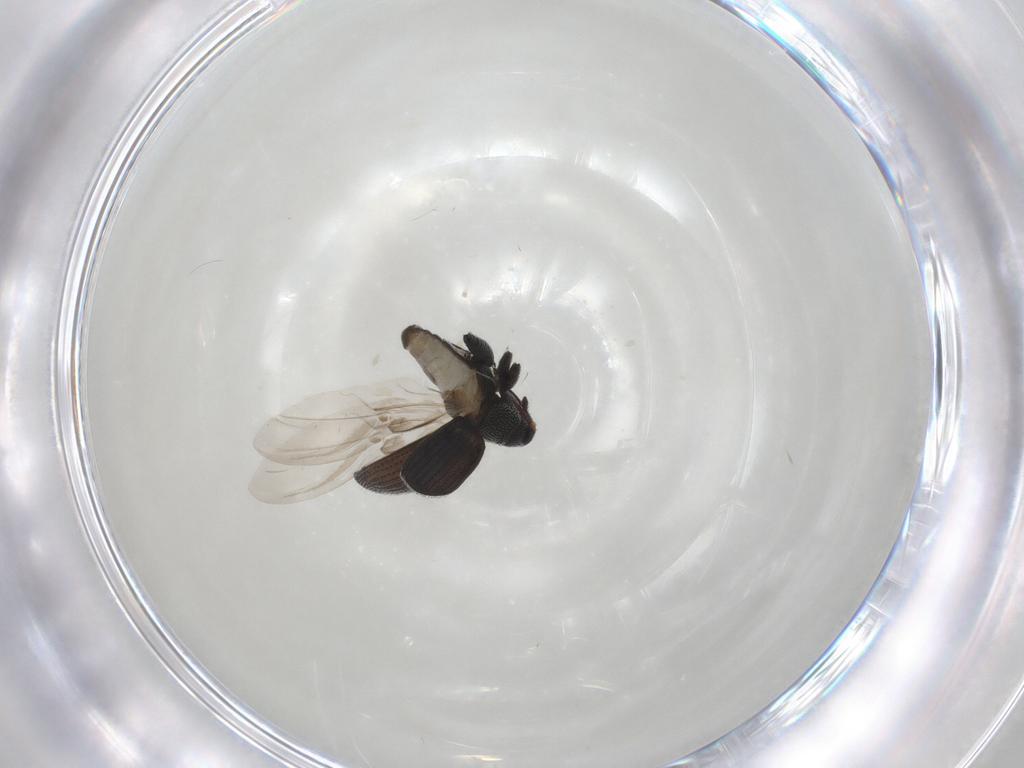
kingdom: Animalia
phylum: Arthropoda
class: Insecta
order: Coleoptera
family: Curculionidae
